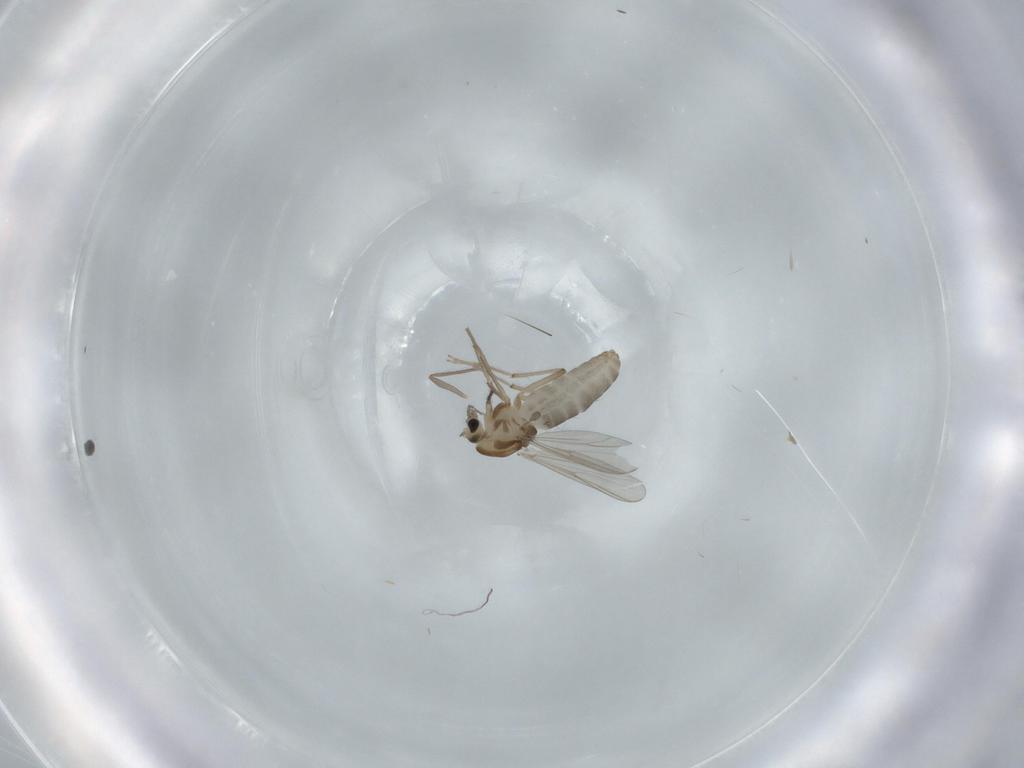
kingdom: Animalia
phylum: Arthropoda
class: Insecta
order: Diptera
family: Chironomidae
